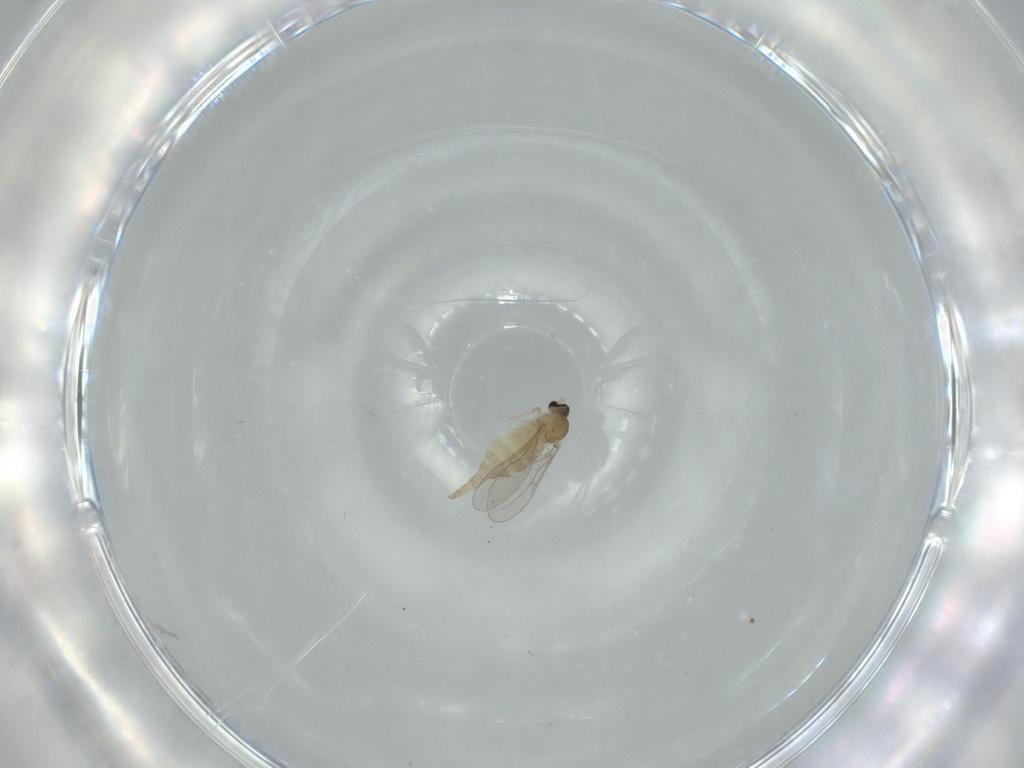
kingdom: Animalia
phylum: Arthropoda
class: Insecta
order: Diptera
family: Cecidomyiidae
